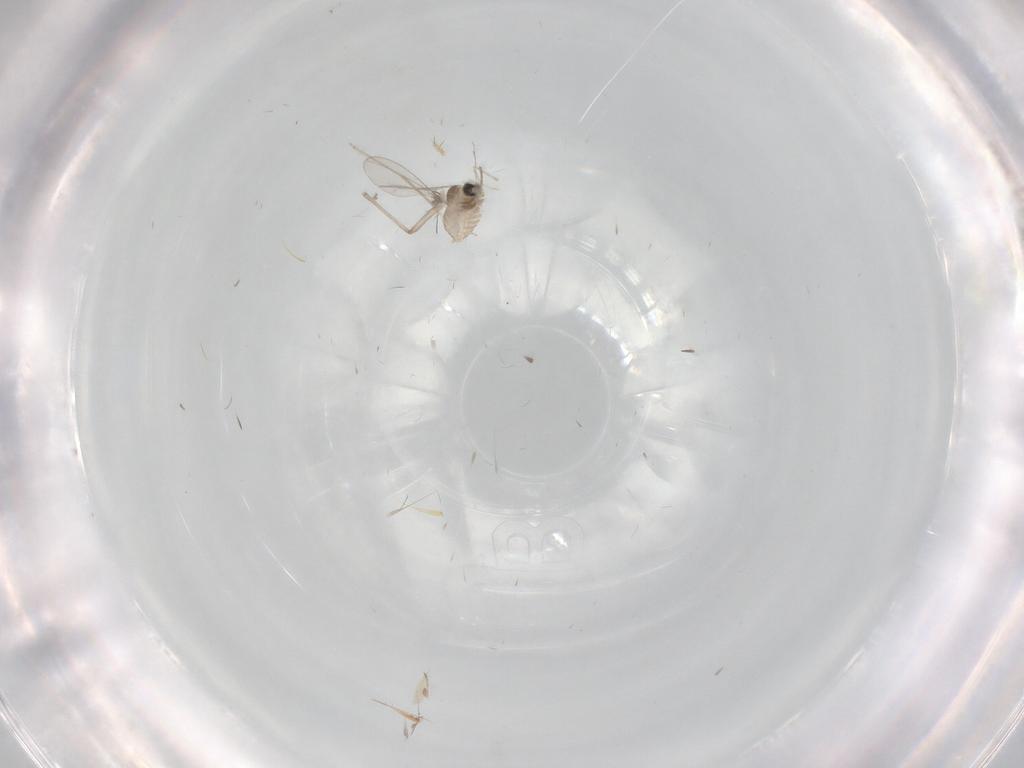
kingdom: Animalia
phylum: Arthropoda
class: Insecta
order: Diptera
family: Cecidomyiidae
